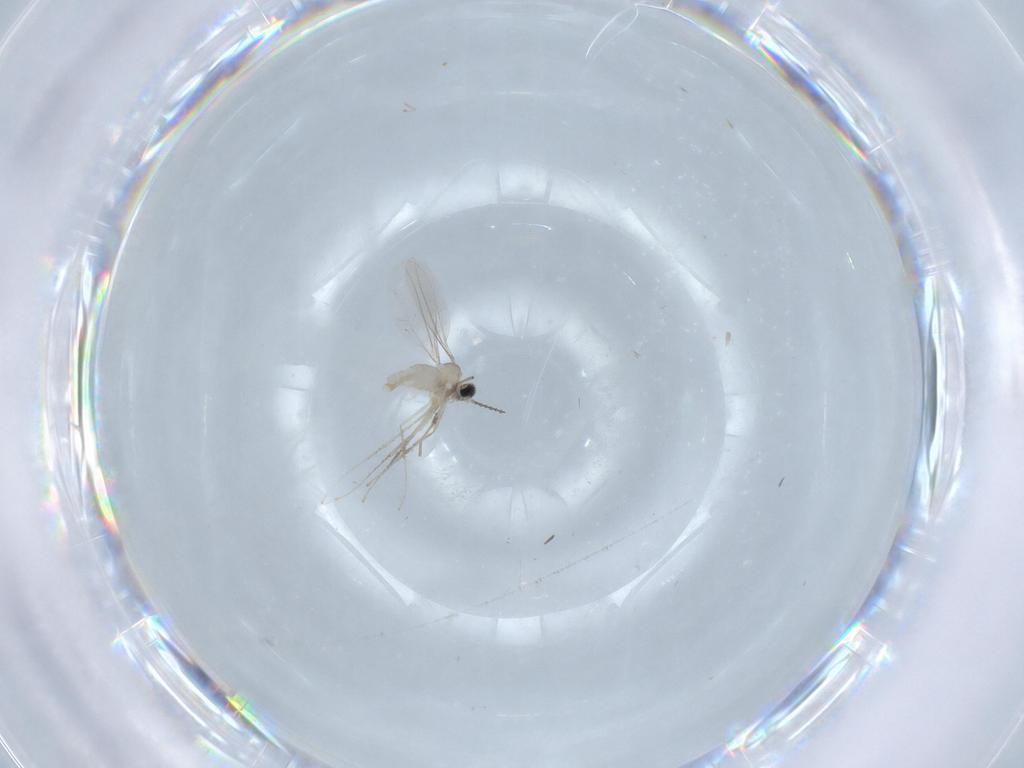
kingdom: Animalia
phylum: Arthropoda
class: Insecta
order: Diptera
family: Cecidomyiidae
